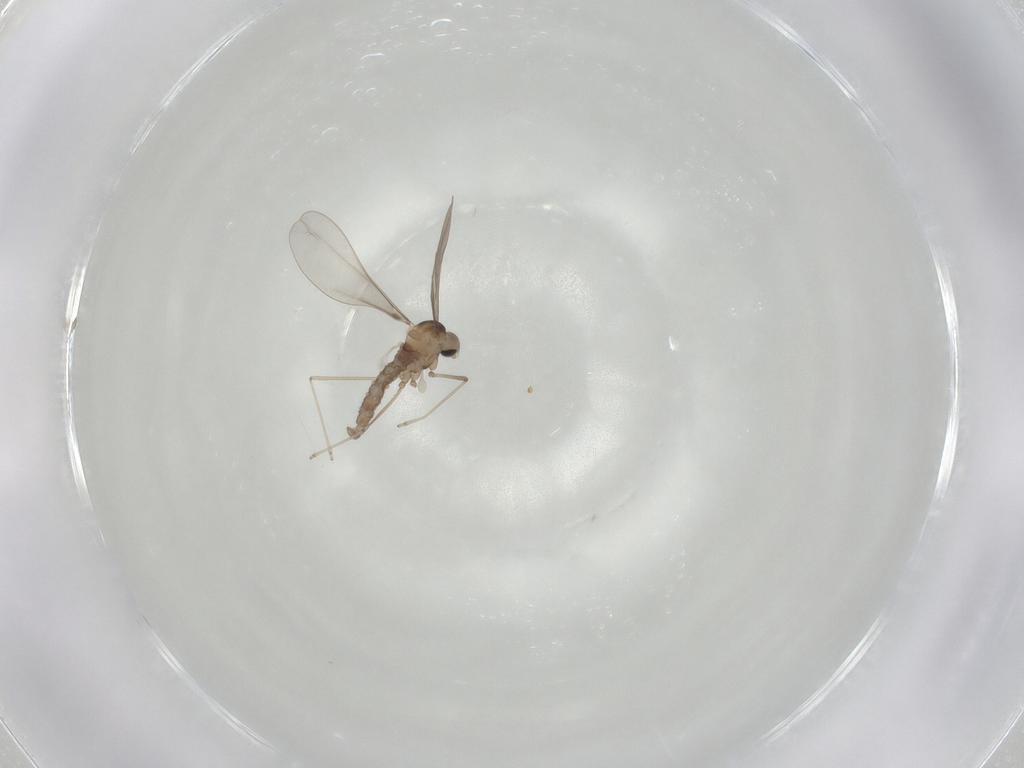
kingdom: Animalia
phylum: Arthropoda
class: Insecta
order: Diptera
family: Cecidomyiidae
